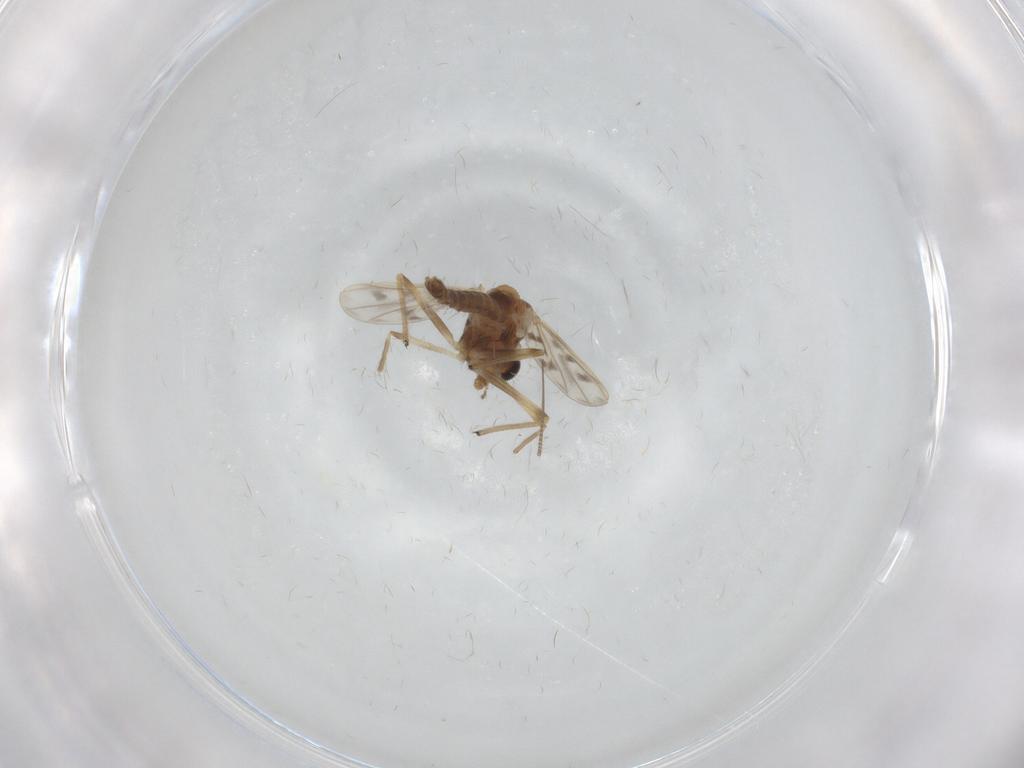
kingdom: Animalia
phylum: Arthropoda
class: Insecta
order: Diptera
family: Chironomidae
